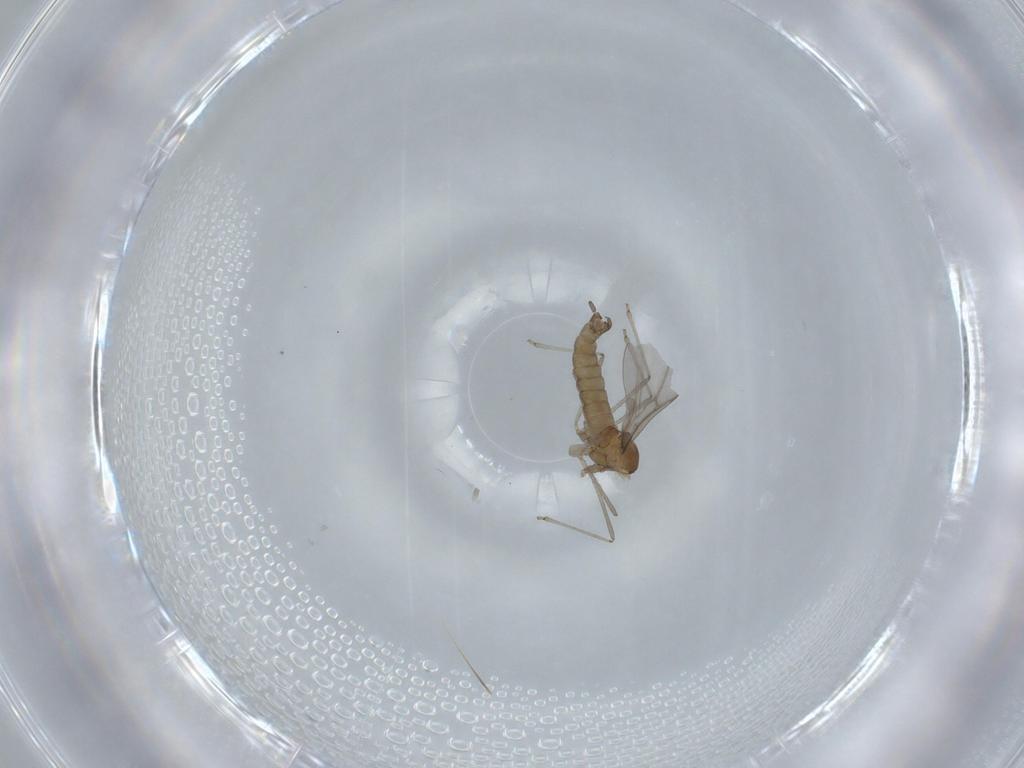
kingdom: Animalia
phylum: Arthropoda
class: Insecta
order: Diptera
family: Cecidomyiidae
